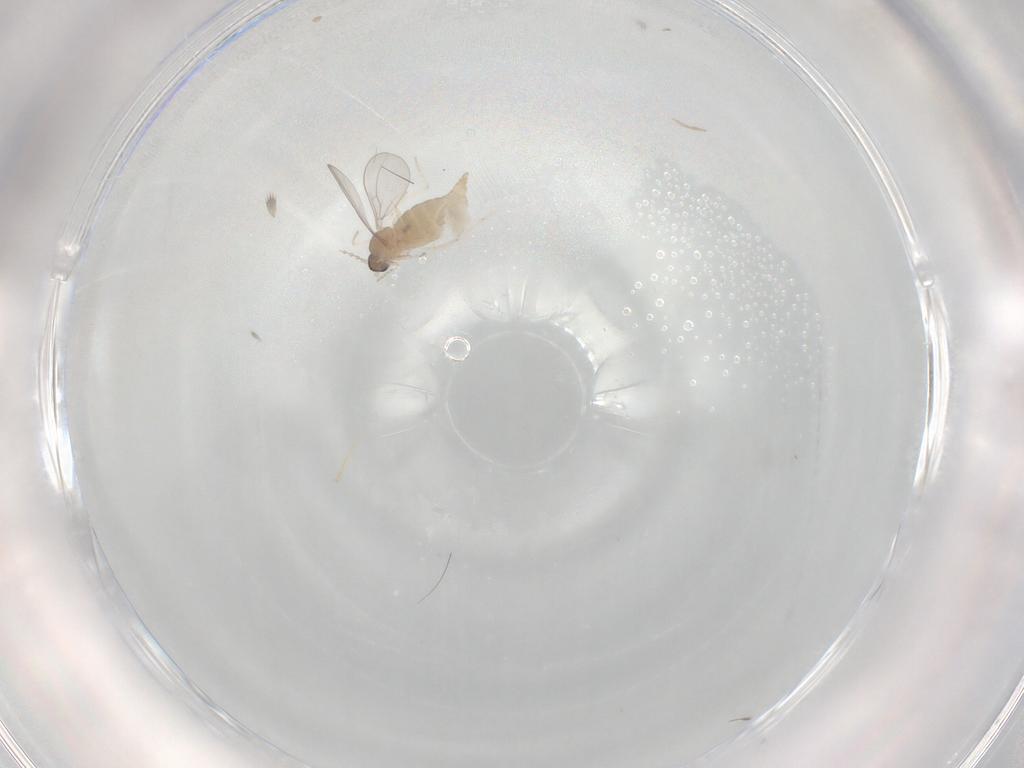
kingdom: Animalia
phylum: Arthropoda
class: Insecta
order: Diptera
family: Cecidomyiidae
